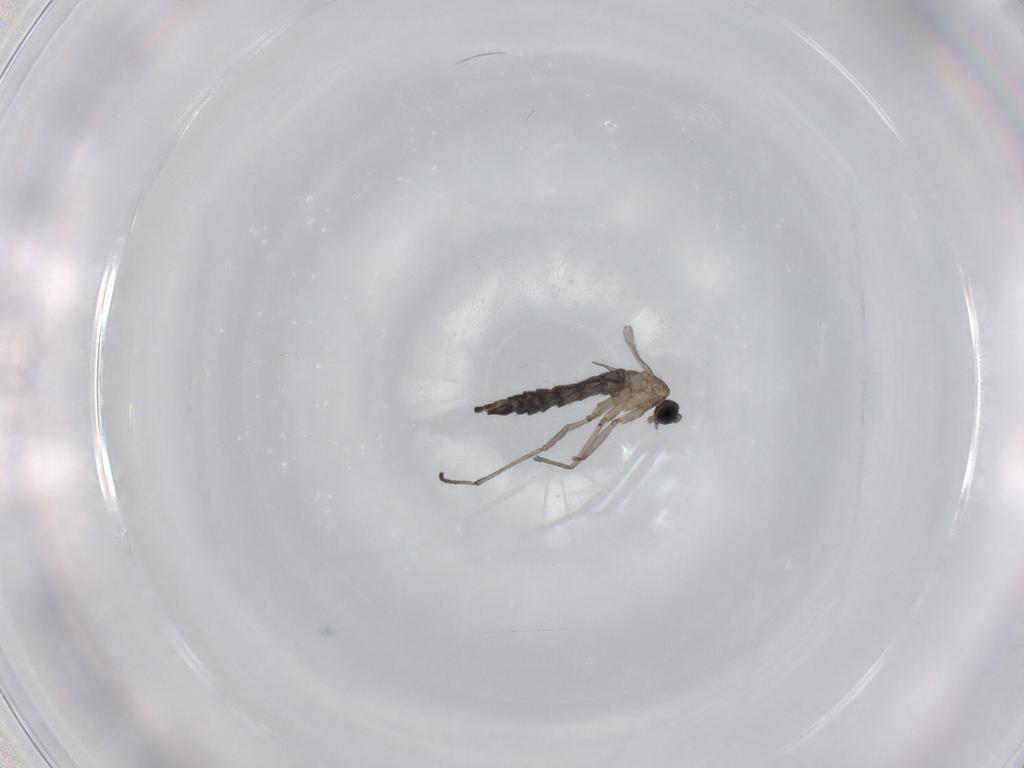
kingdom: Animalia
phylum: Arthropoda
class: Insecta
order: Diptera
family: Sciaridae
